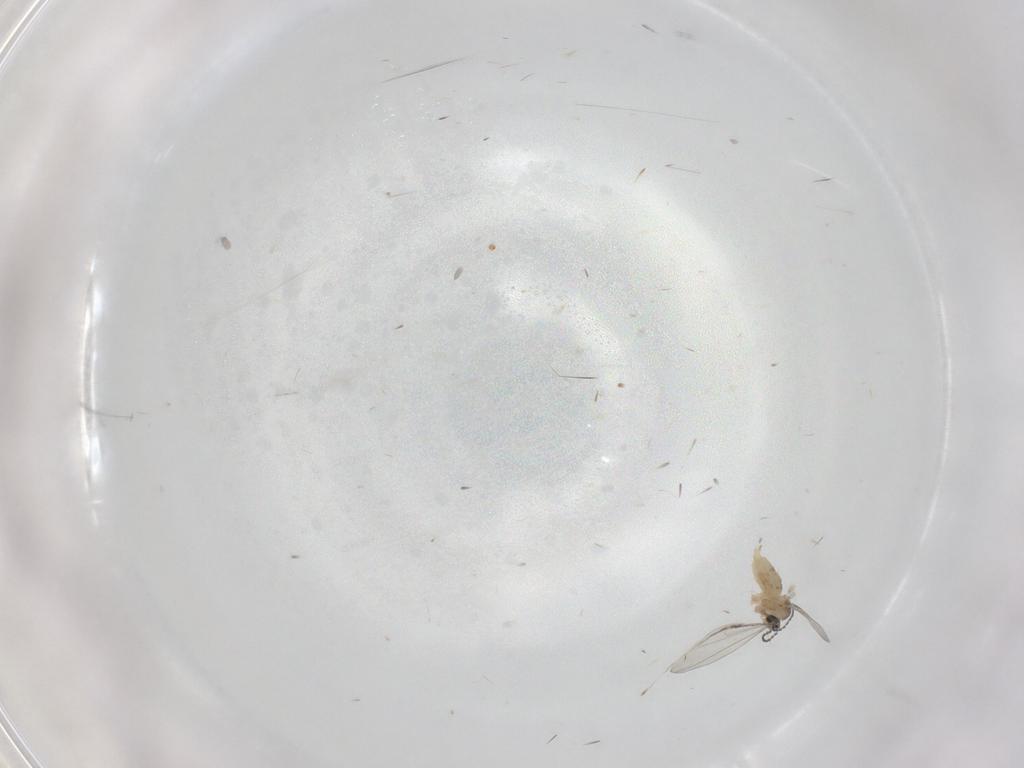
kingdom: Animalia
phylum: Arthropoda
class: Insecta
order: Diptera
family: Cecidomyiidae
